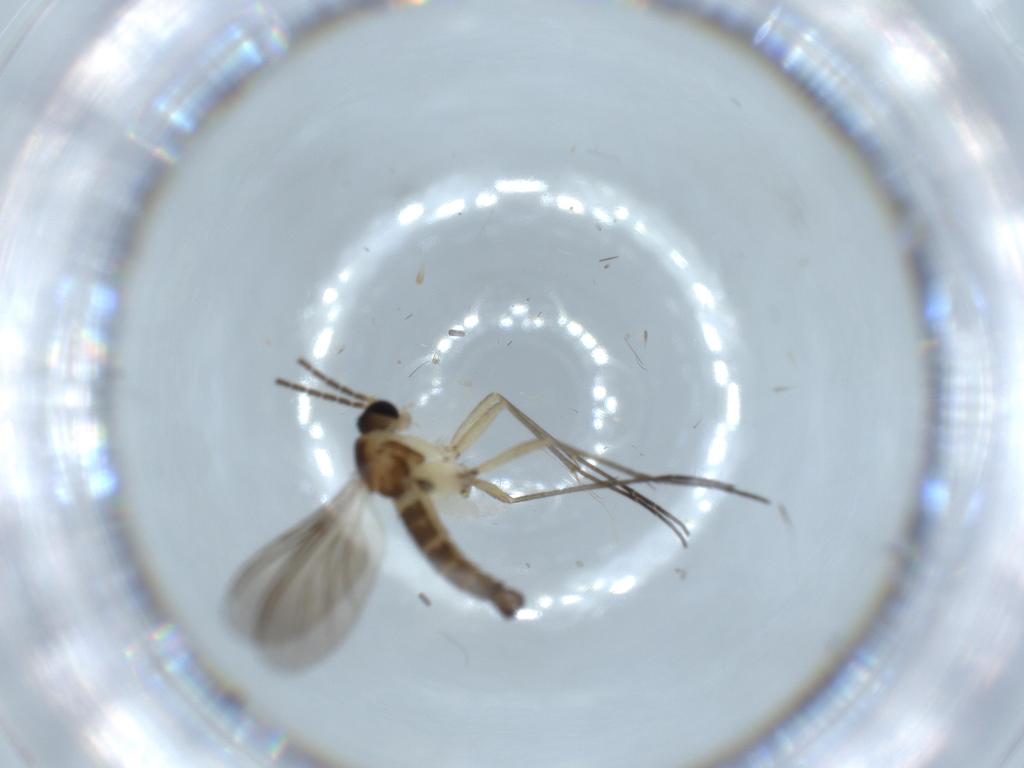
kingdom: Animalia
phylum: Arthropoda
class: Insecta
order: Diptera
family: Sciaridae
